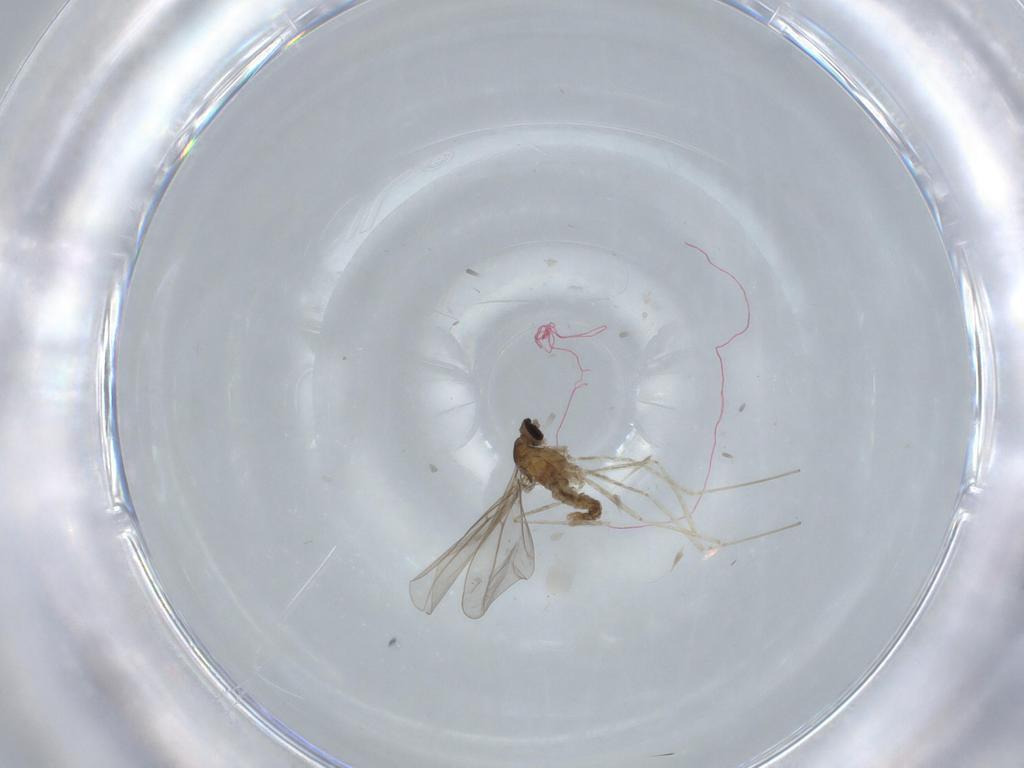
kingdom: Animalia
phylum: Arthropoda
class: Insecta
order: Diptera
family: Cecidomyiidae
